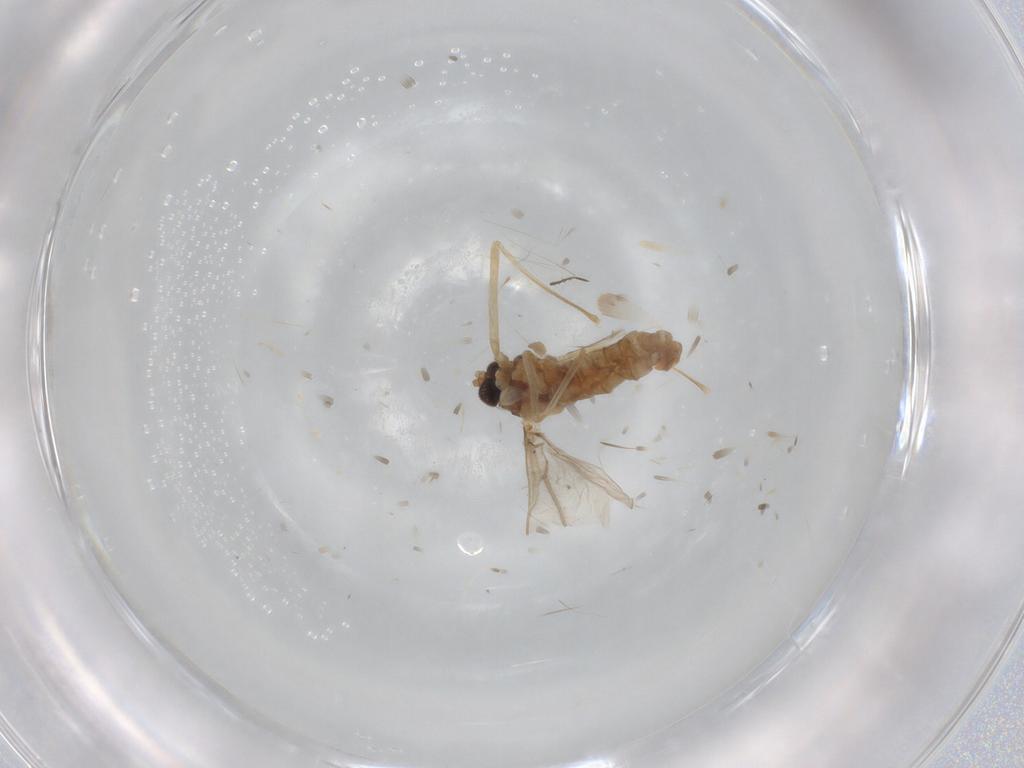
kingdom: Animalia
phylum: Arthropoda
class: Insecta
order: Diptera
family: Cecidomyiidae
